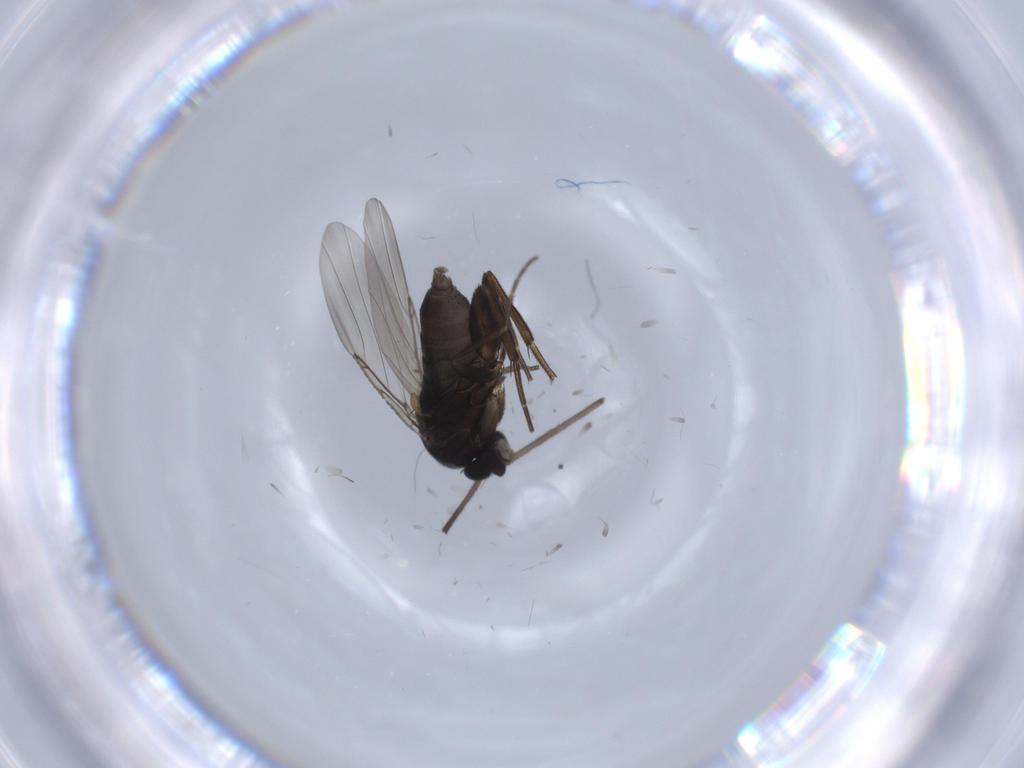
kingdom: Animalia
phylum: Arthropoda
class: Insecta
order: Diptera
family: Phoridae
